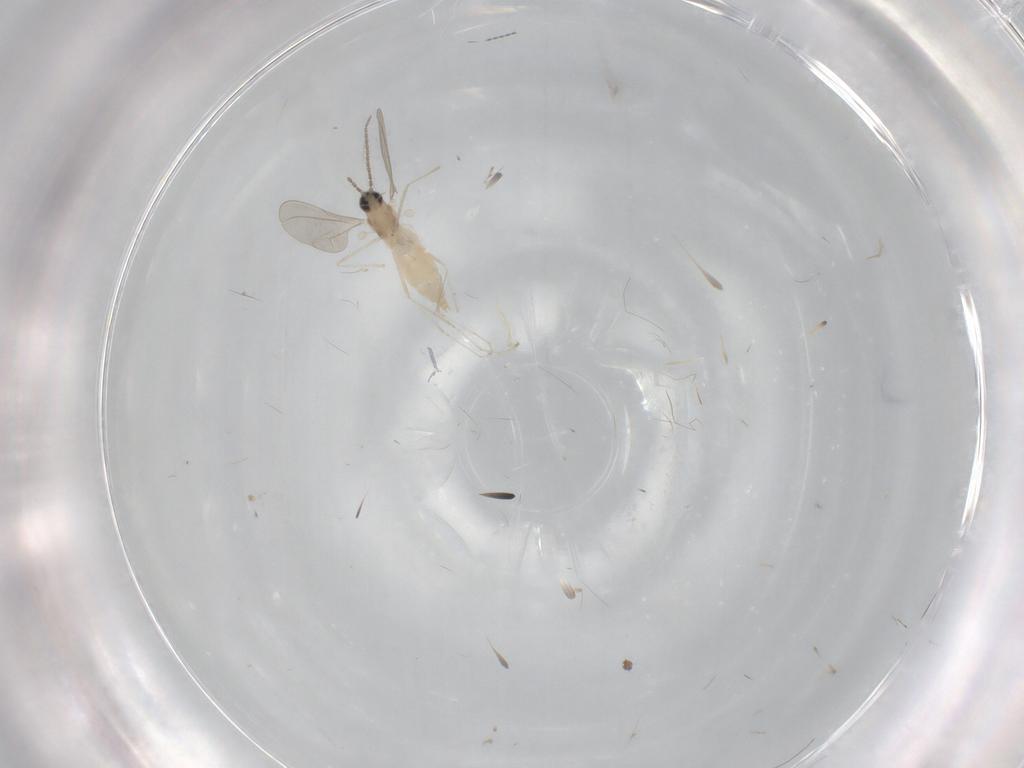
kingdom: Animalia
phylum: Arthropoda
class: Insecta
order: Diptera
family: Cecidomyiidae
